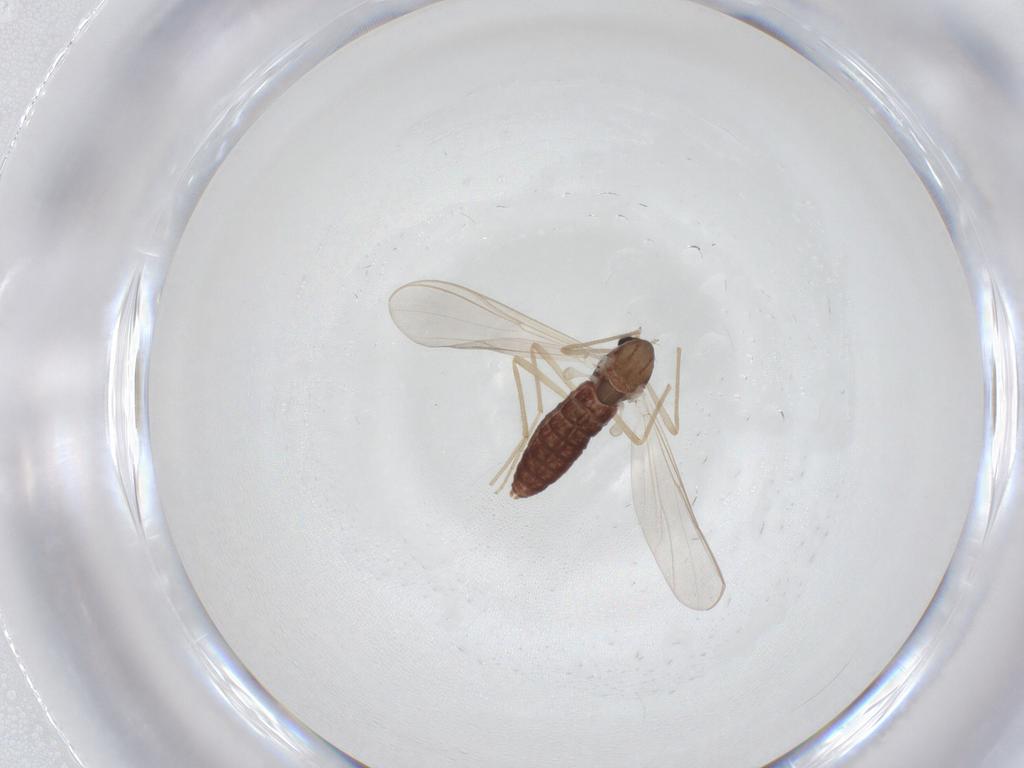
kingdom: Animalia
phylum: Arthropoda
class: Insecta
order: Diptera
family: Chironomidae
